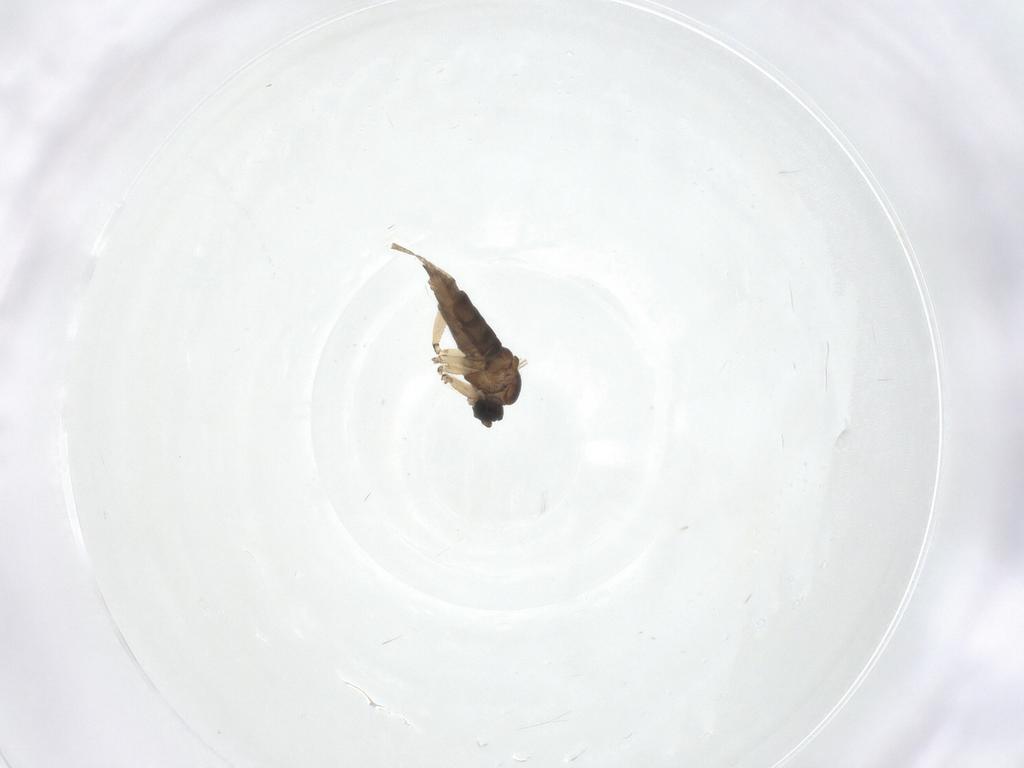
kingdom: Animalia
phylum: Arthropoda
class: Insecta
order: Diptera
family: Dolichopodidae
